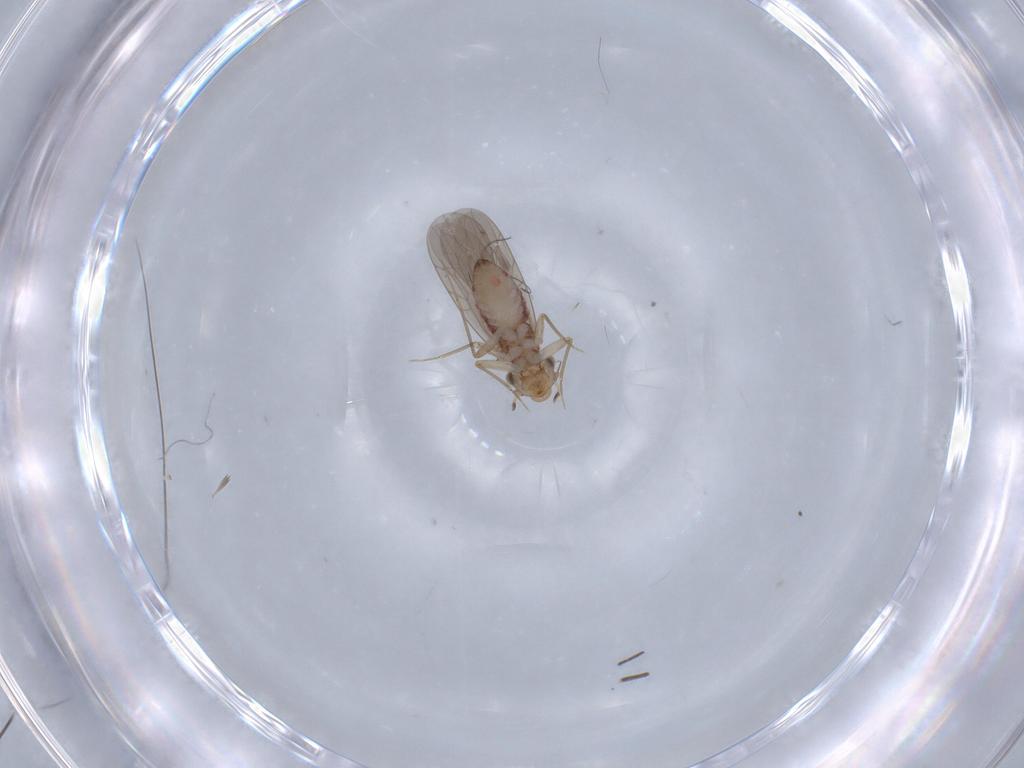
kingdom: Animalia
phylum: Arthropoda
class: Insecta
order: Psocodea
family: Lepidopsocidae
